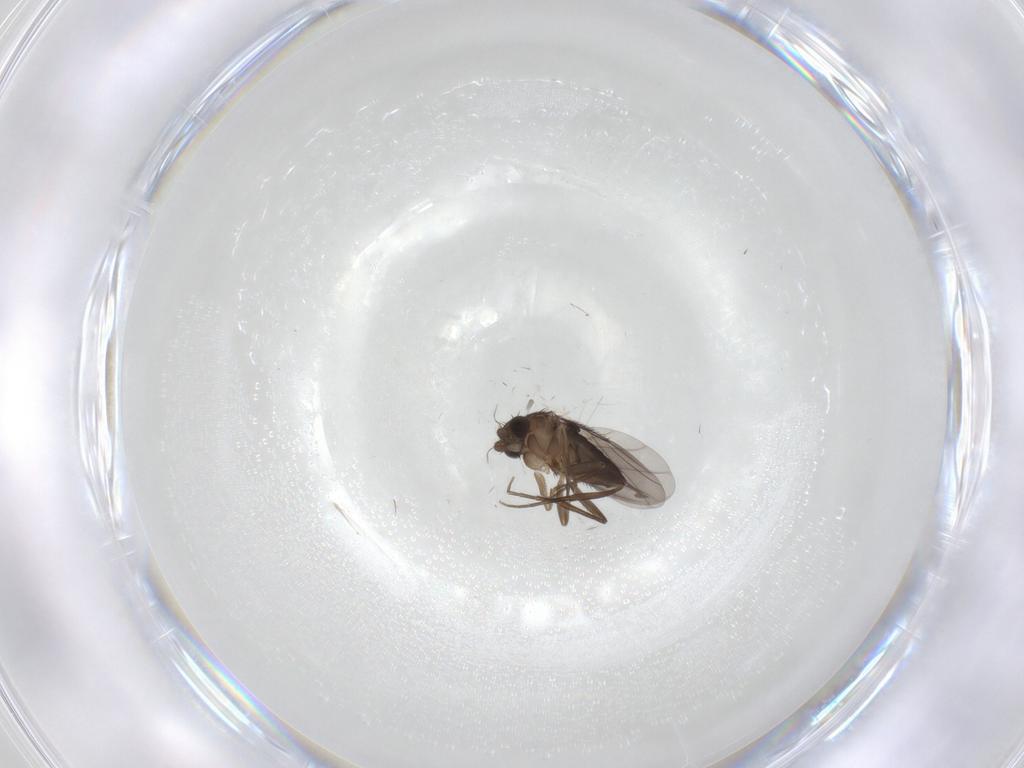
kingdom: Animalia
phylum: Arthropoda
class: Insecta
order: Diptera
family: Phoridae
